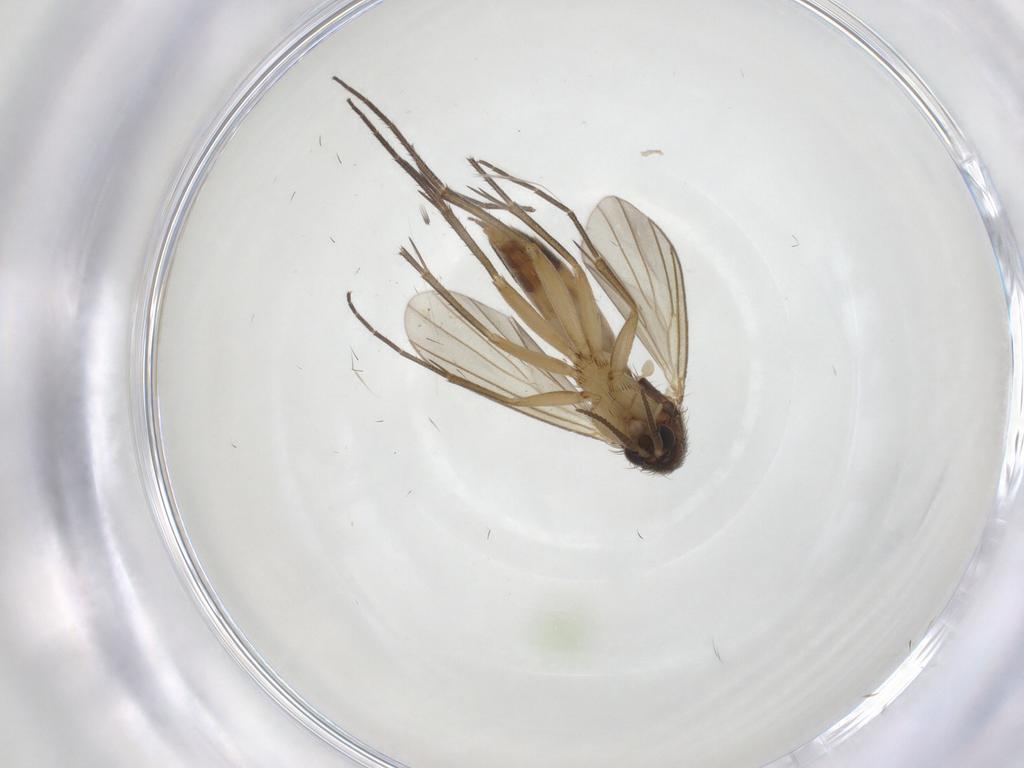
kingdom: Animalia
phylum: Arthropoda
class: Insecta
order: Diptera
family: Mycetophilidae
